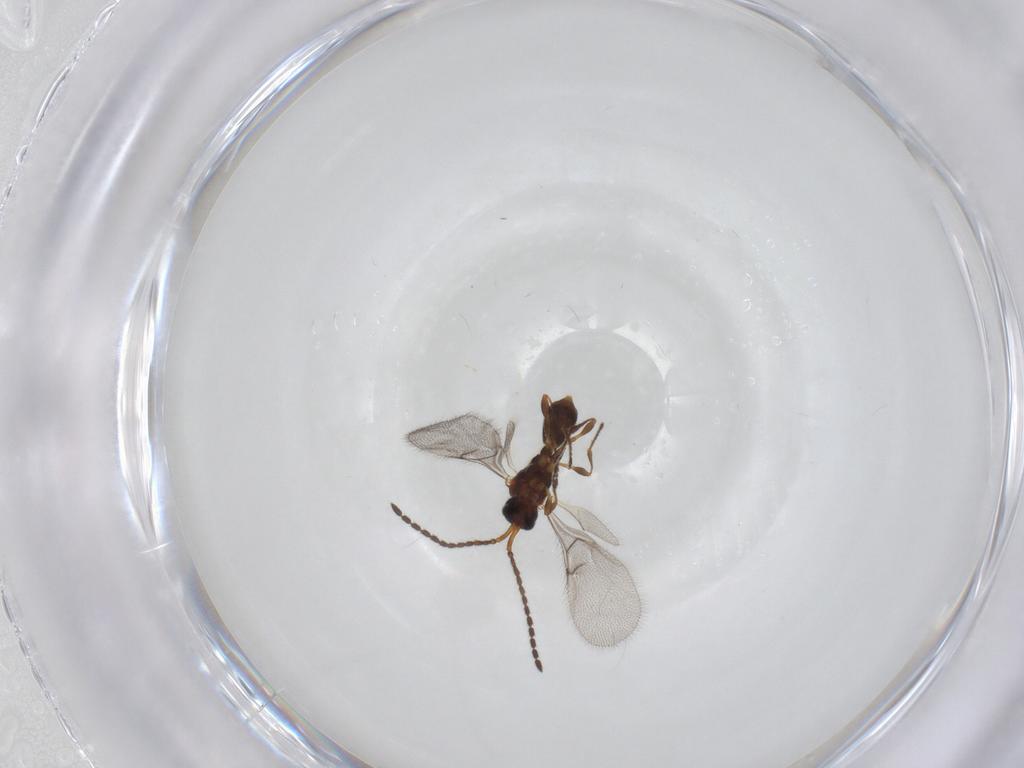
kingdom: Animalia
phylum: Arthropoda
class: Insecta
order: Hymenoptera
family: Diapriidae
